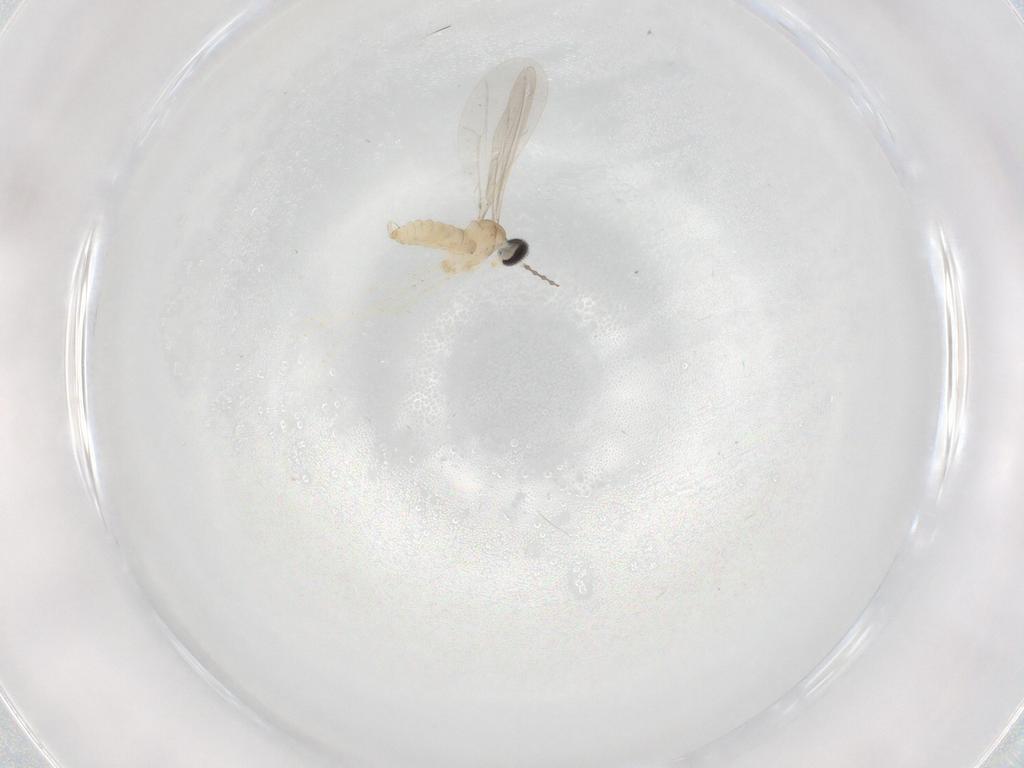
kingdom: Animalia
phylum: Arthropoda
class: Insecta
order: Diptera
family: Cecidomyiidae
